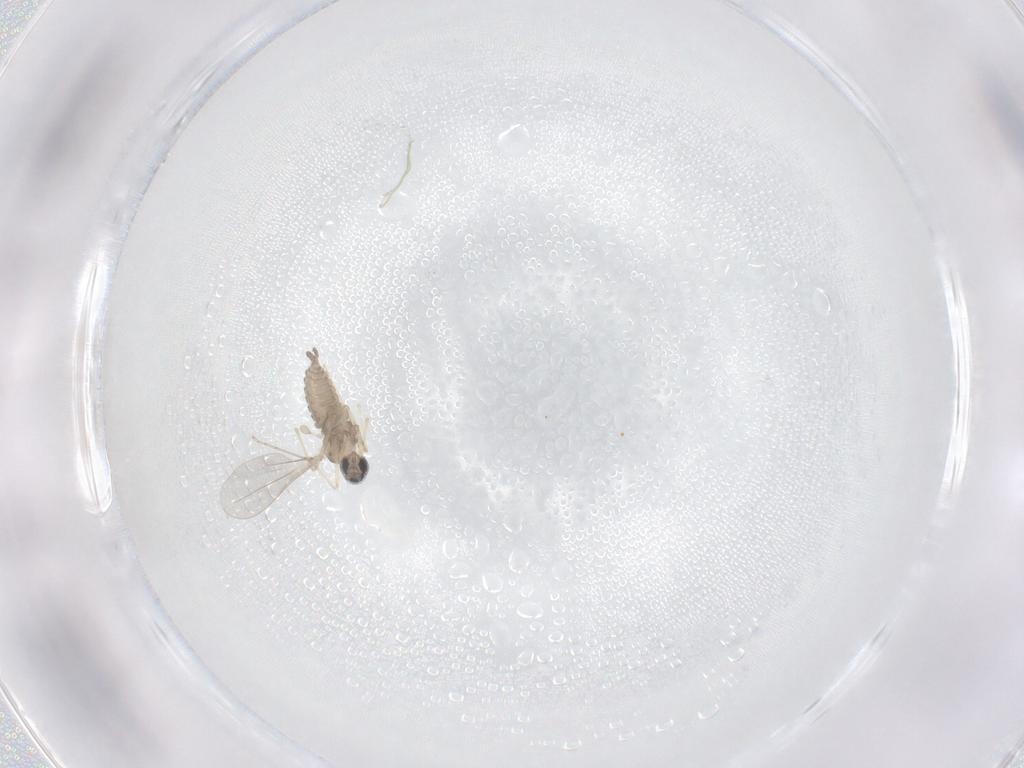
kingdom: Animalia
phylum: Arthropoda
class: Insecta
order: Diptera
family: Cecidomyiidae
